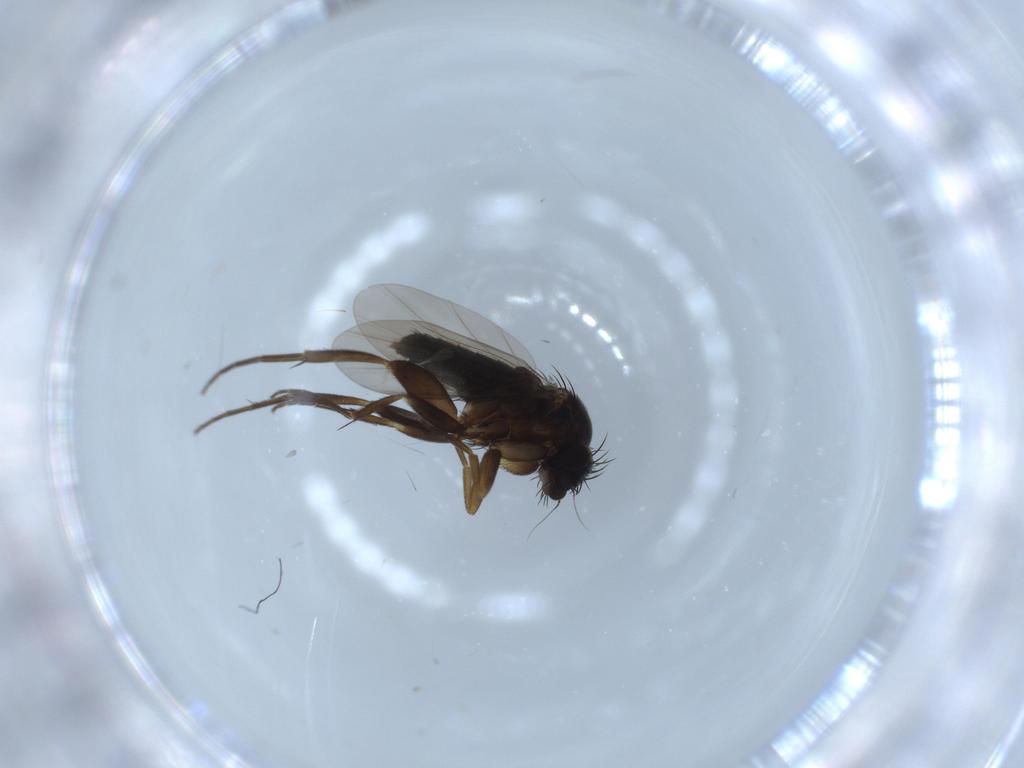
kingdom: Animalia
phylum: Arthropoda
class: Insecta
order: Diptera
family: Phoridae
